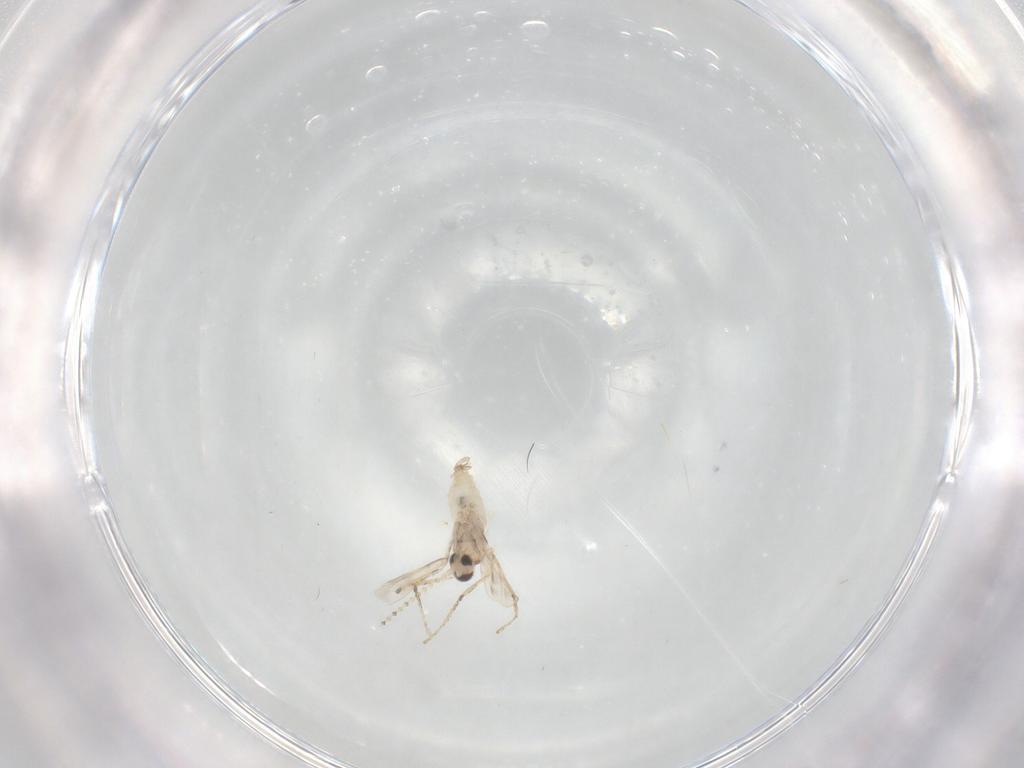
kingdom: Animalia
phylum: Arthropoda
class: Insecta
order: Diptera
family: Cecidomyiidae
